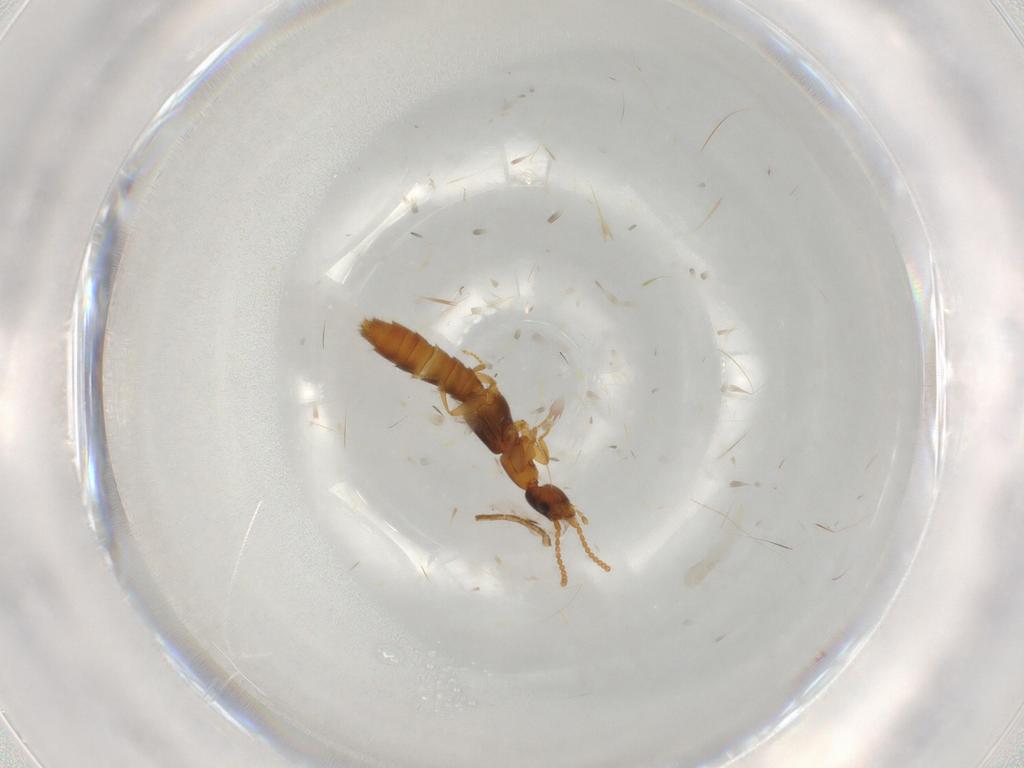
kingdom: Animalia
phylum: Arthropoda
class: Insecta
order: Coleoptera
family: Staphylinidae
